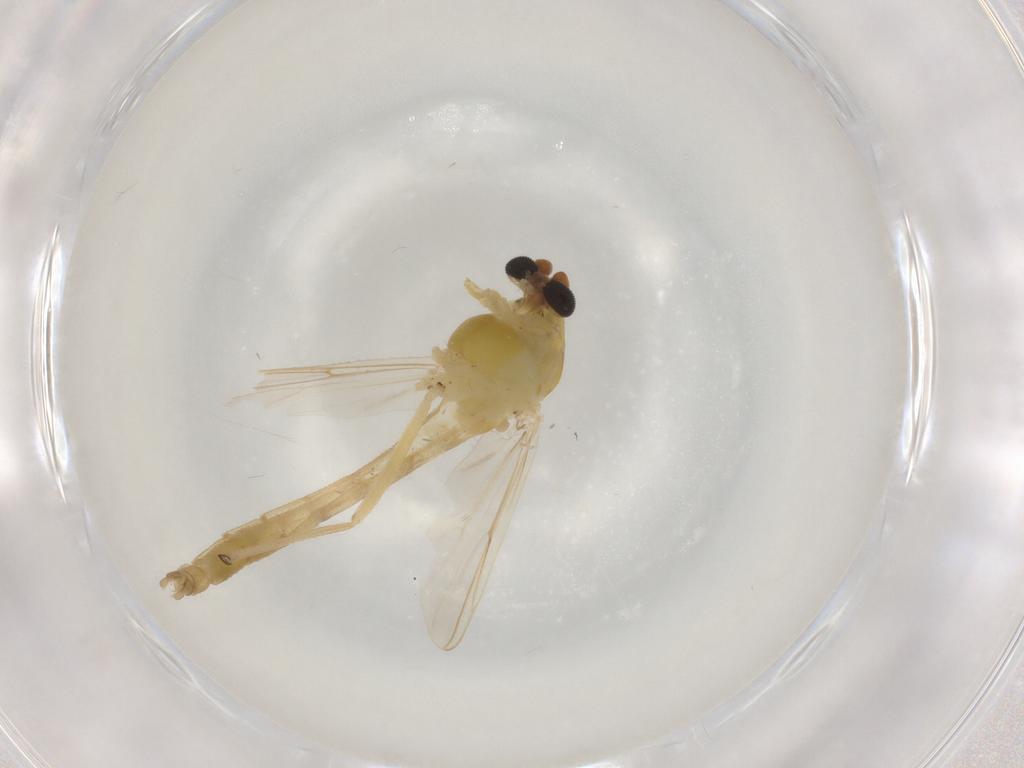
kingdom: Animalia
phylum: Arthropoda
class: Insecta
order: Diptera
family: Chironomidae
